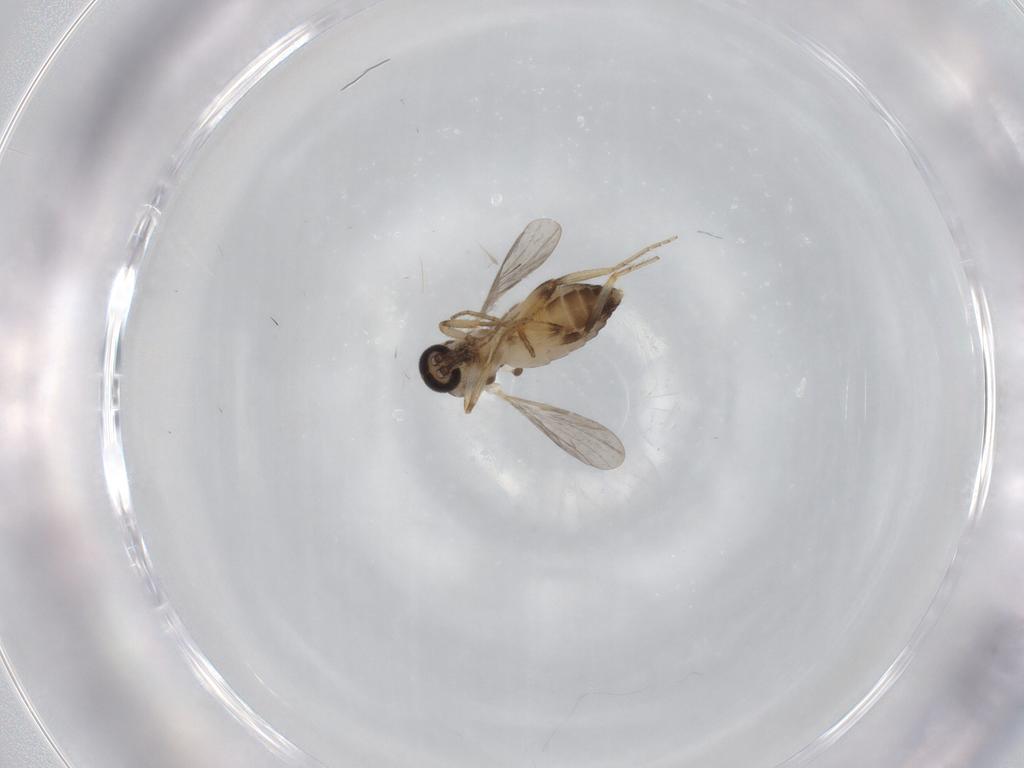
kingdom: Animalia
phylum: Arthropoda
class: Insecta
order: Diptera
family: Ceratopogonidae
